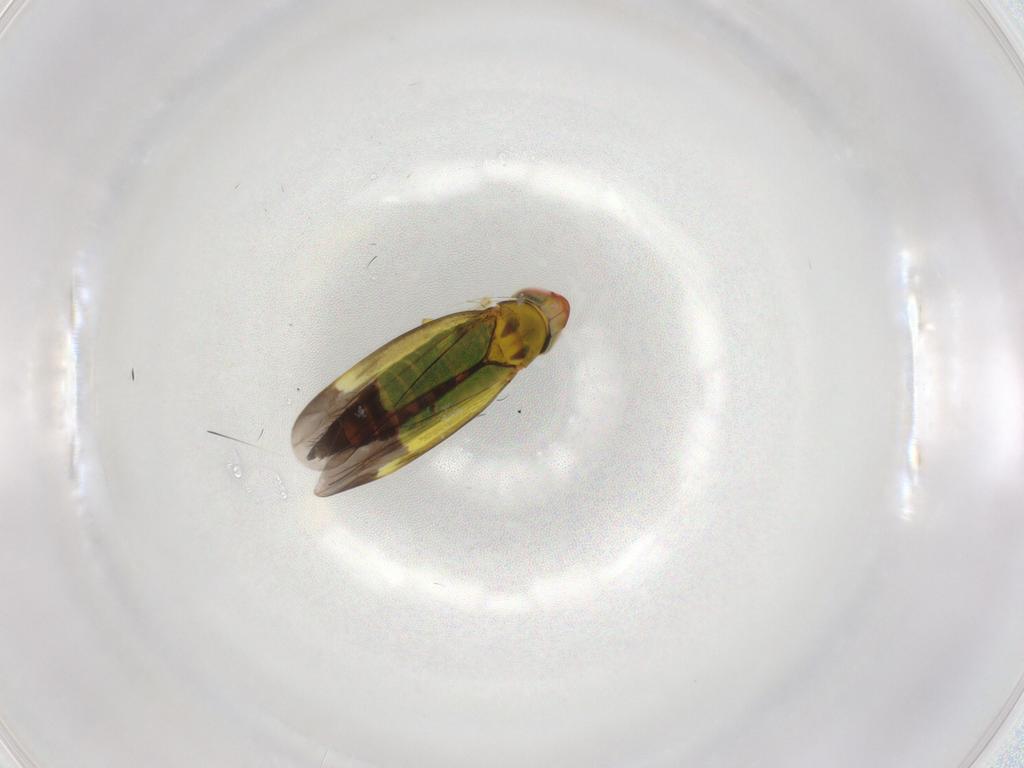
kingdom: Animalia
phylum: Arthropoda
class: Insecta
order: Hemiptera
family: Cicadellidae
